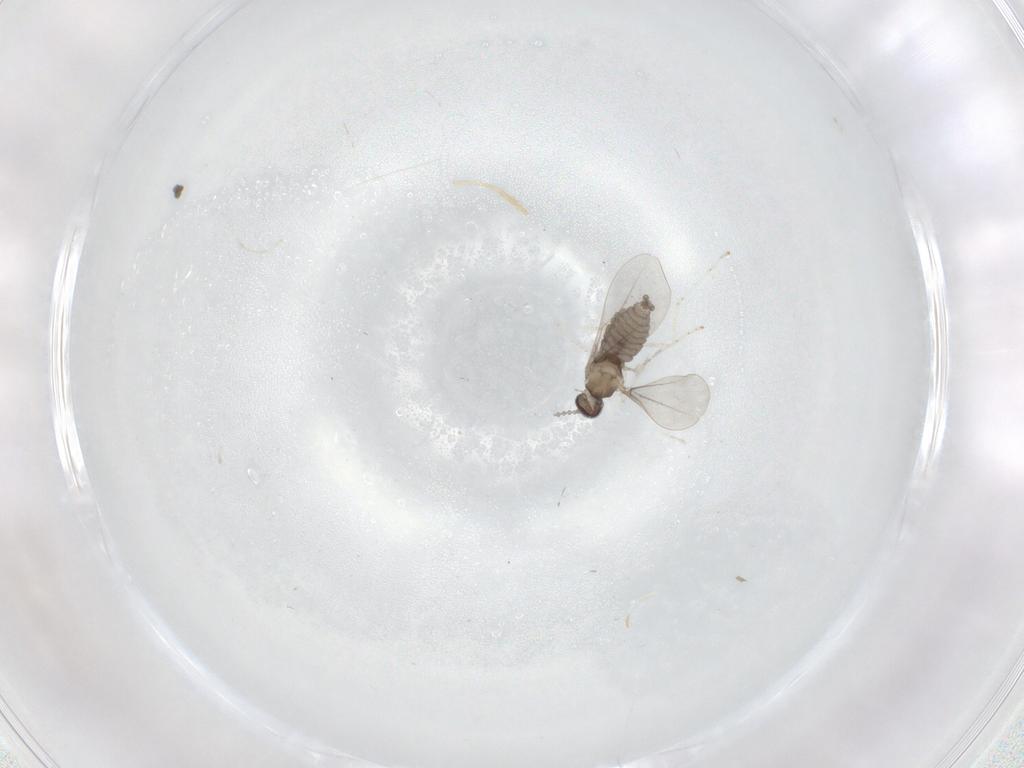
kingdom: Animalia
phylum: Arthropoda
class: Insecta
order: Diptera
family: Cecidomyiidae
